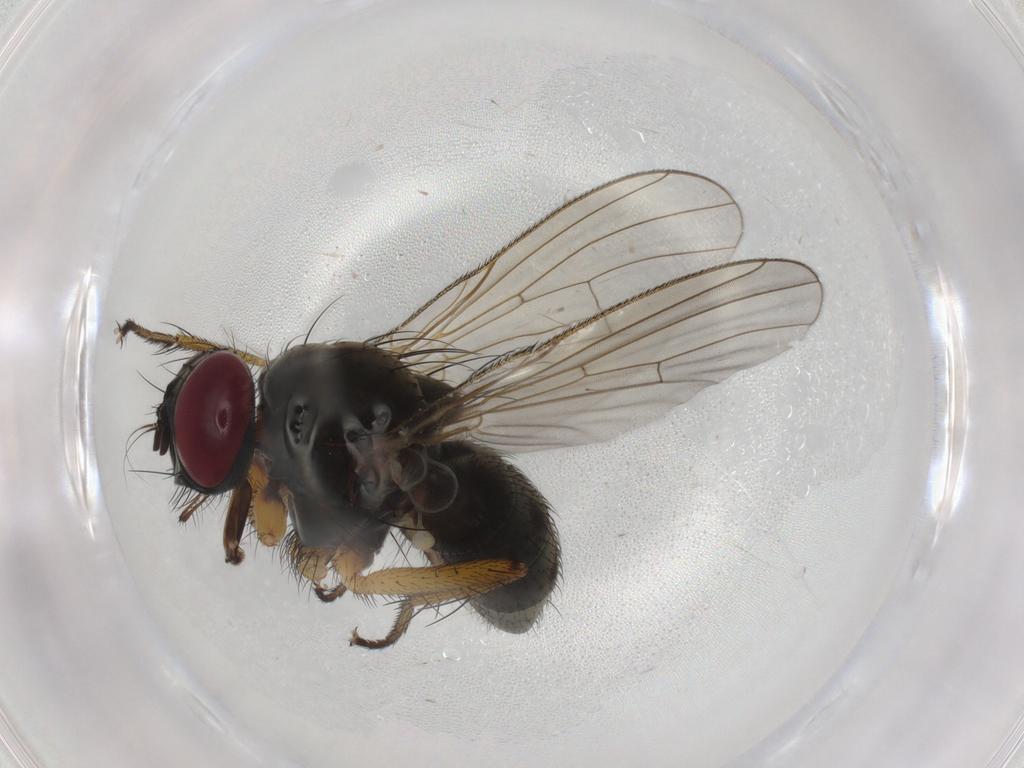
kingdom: Animalia
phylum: Arthropoda
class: Insecta
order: Diptera
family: Muscidae
